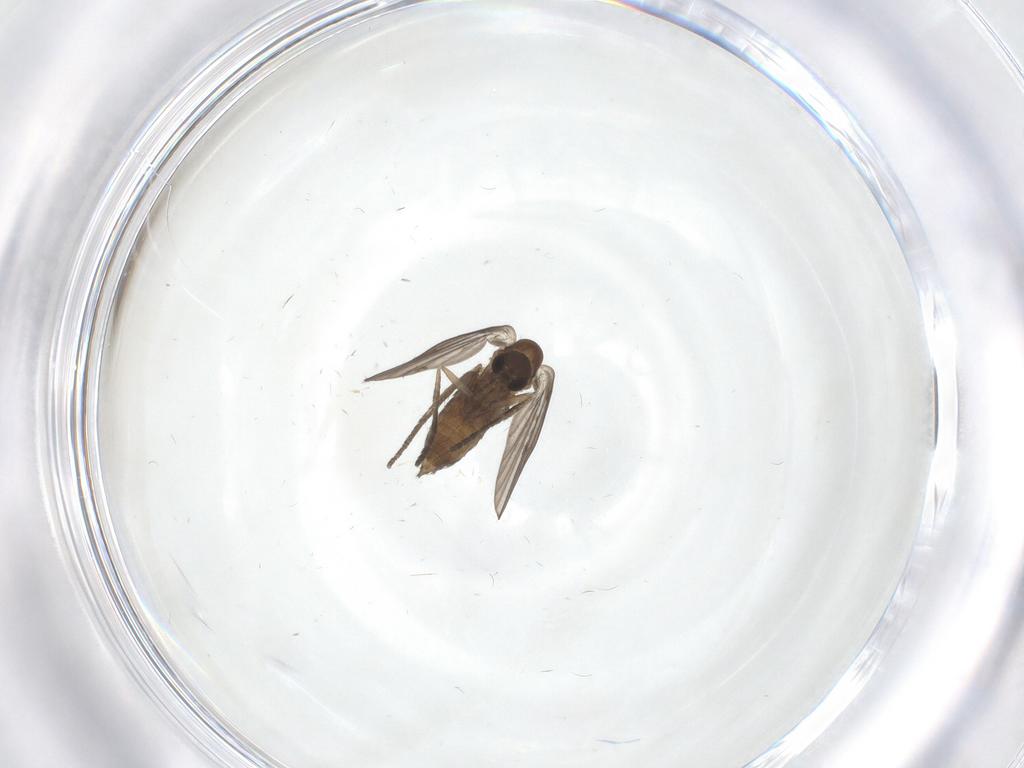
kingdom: Animalia
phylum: Arthropoda
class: Insecta
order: Diptera
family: Psychodidae
